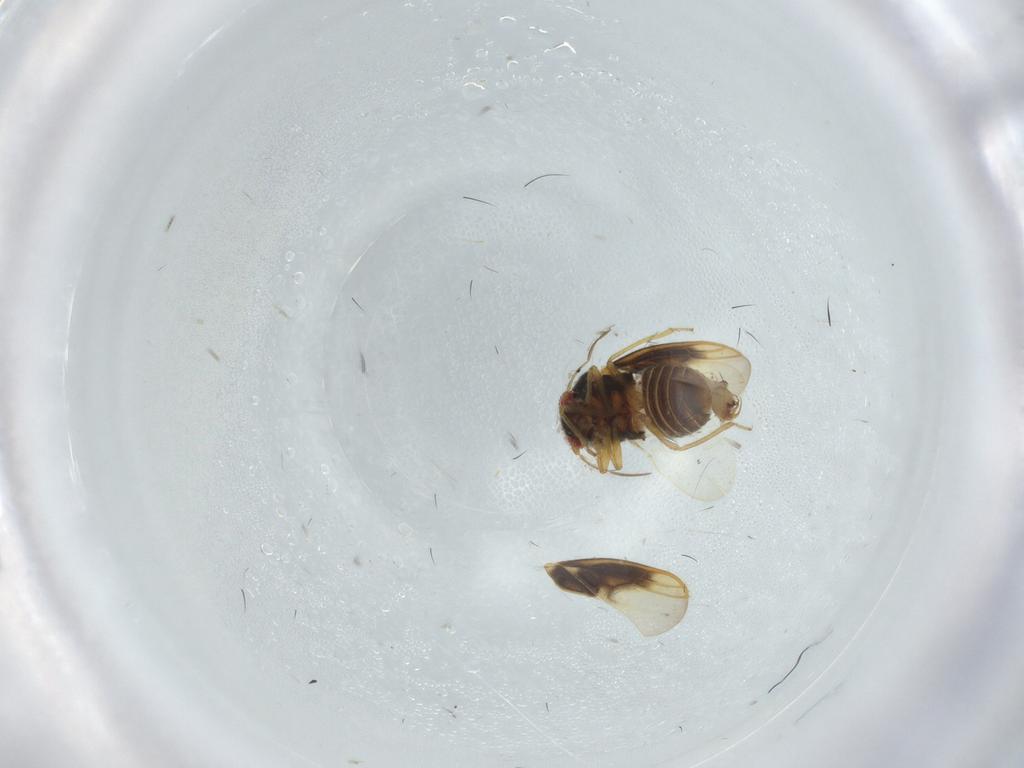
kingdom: Animalia
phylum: Arthropoda
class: Insecta
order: Hemiptera
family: Schizopteridae
